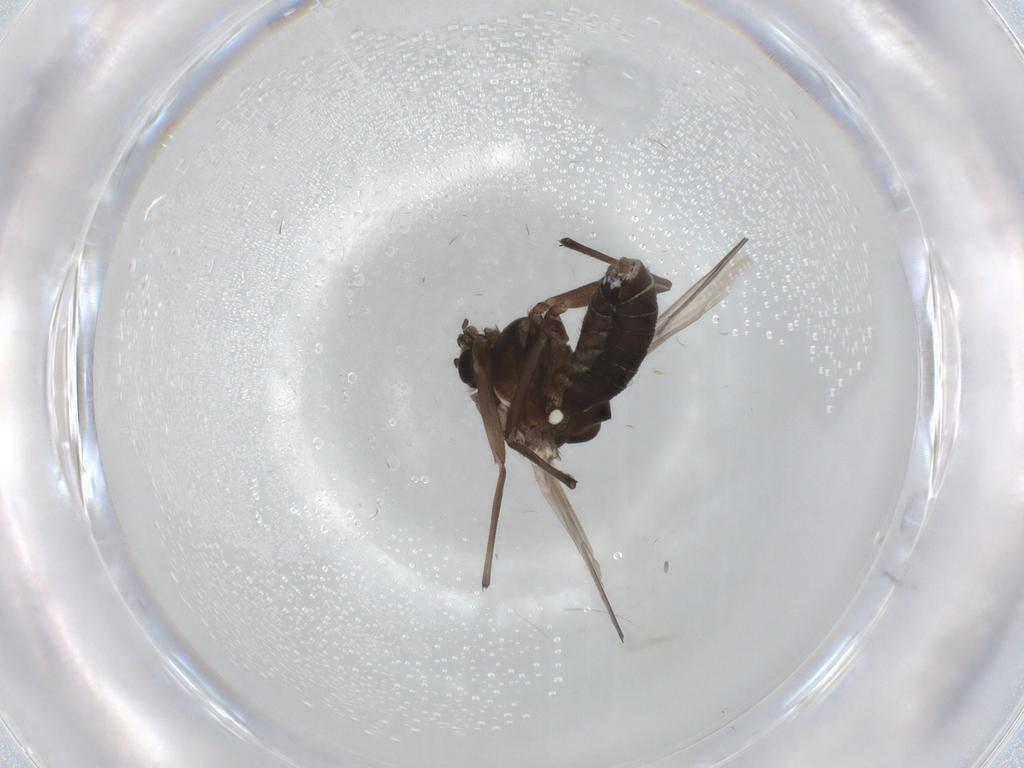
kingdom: Animalia
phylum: Arthropoda
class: Insecta
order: Diptera
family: Chironomidae
